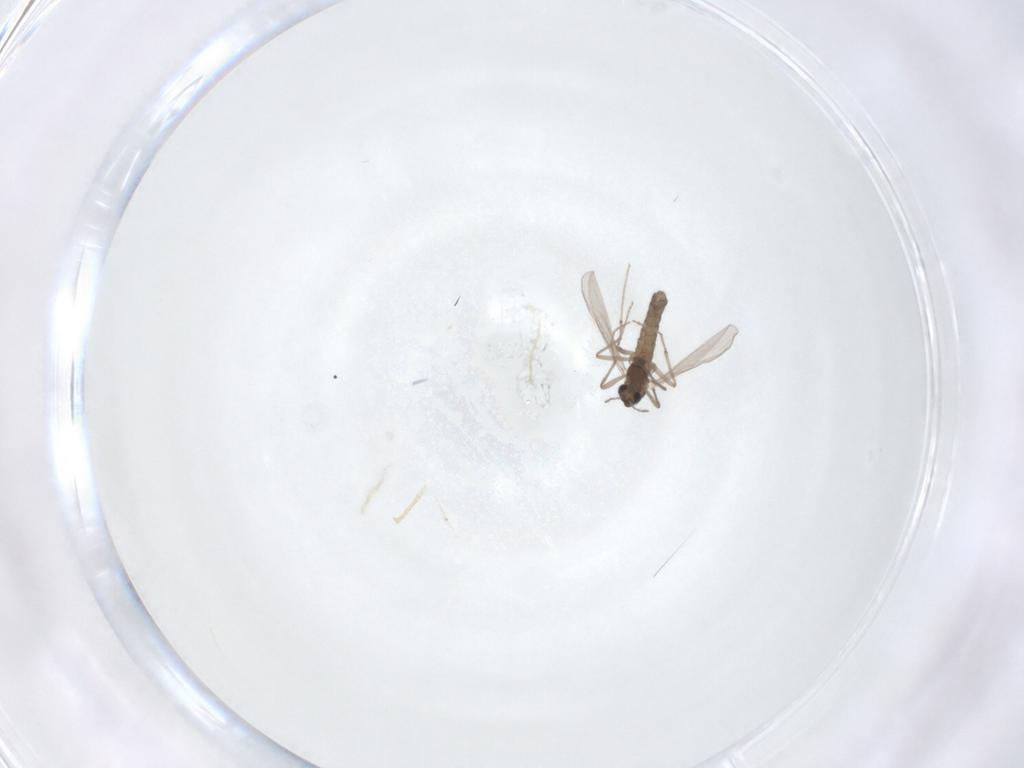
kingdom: Animalia
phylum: Arthropoda
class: Insecta
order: Diptera
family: Chironomidae
